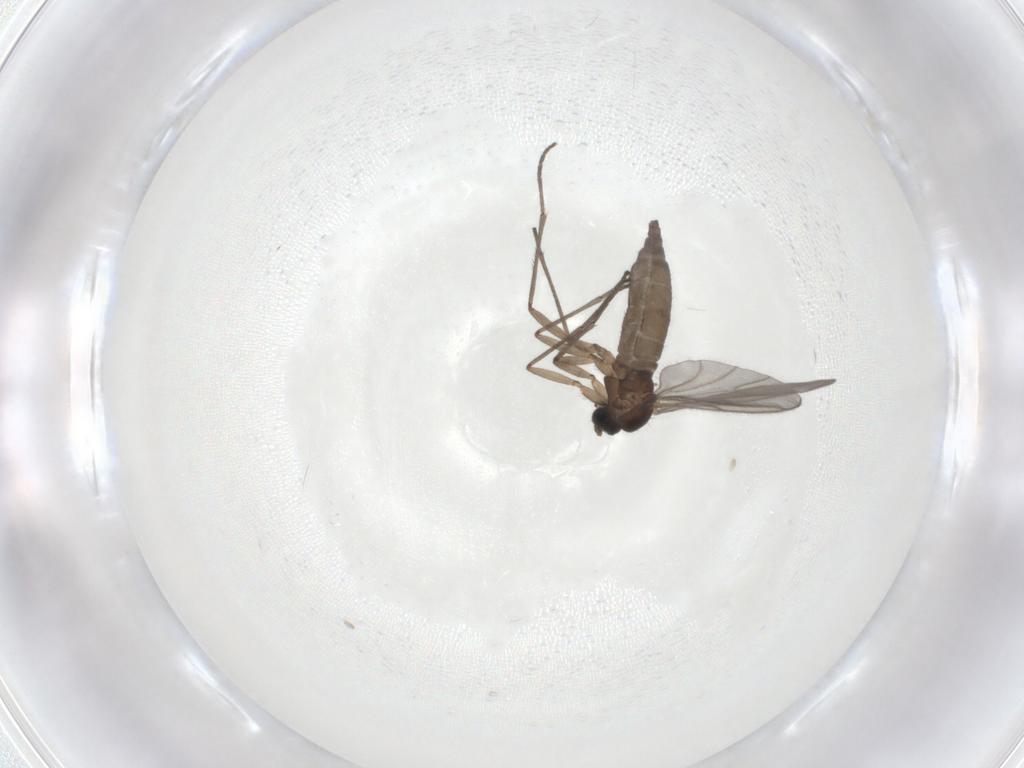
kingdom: Animalia
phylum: Arthropoda
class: Insecta
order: Diptera
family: Sciaridae
